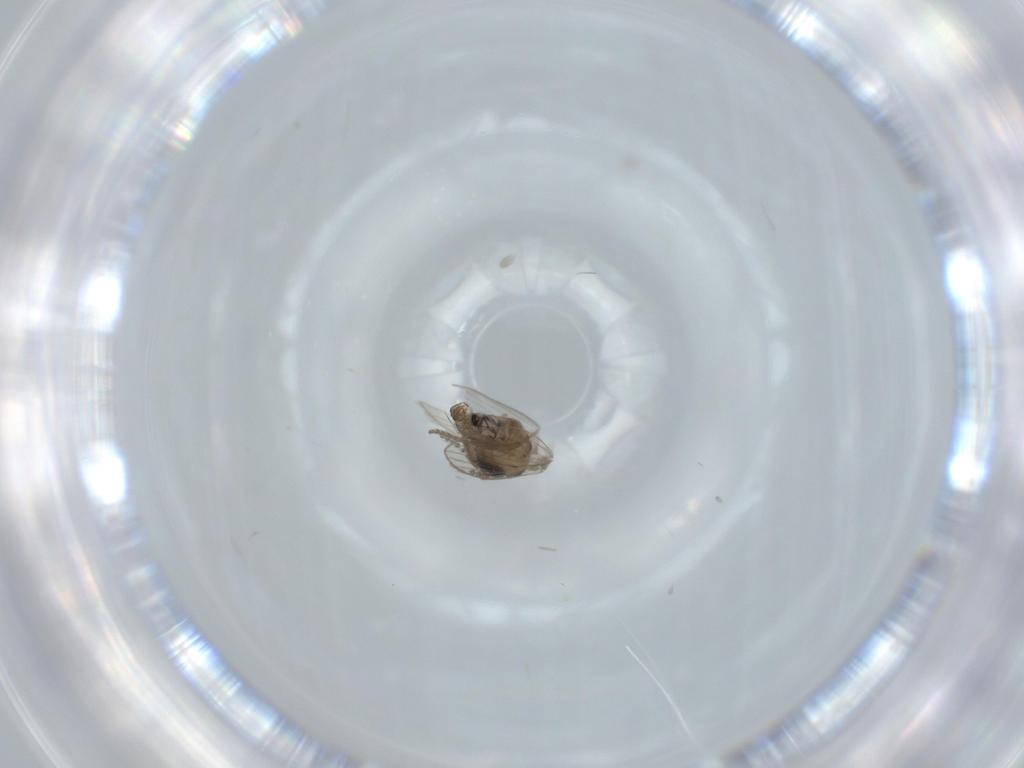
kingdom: Animalia
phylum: Arthropoda
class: Insecta
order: Diptera
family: Psychodidae
